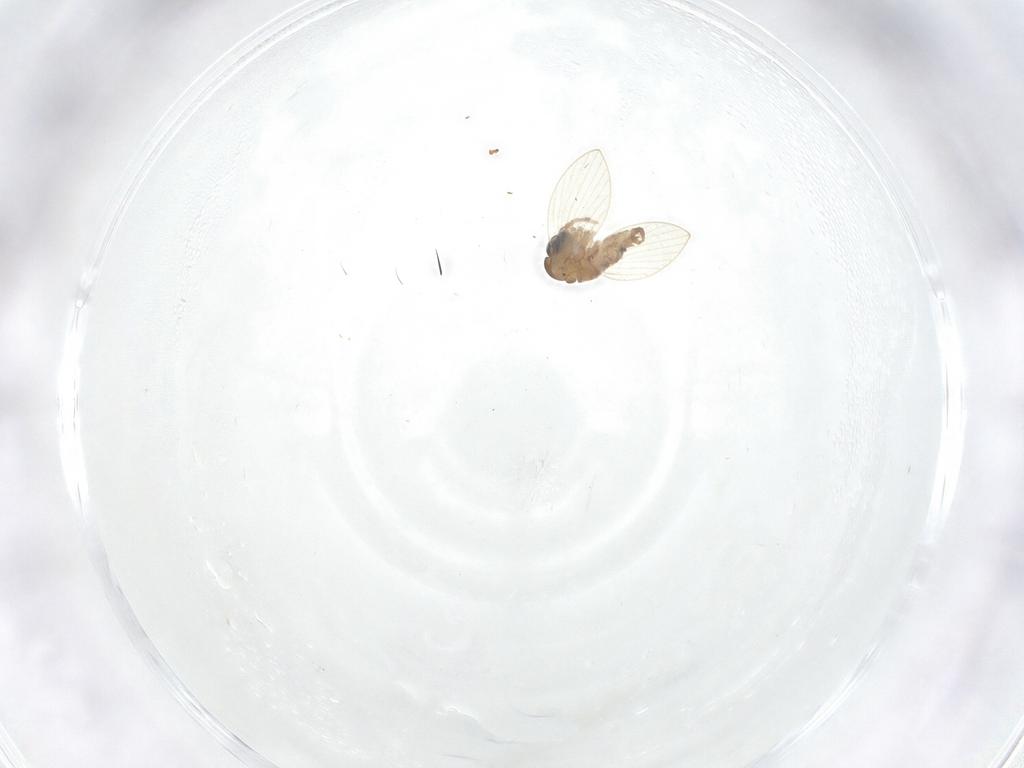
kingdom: Animalia
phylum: Arthropoda
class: Insecta
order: Diptera
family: Psychodidae
